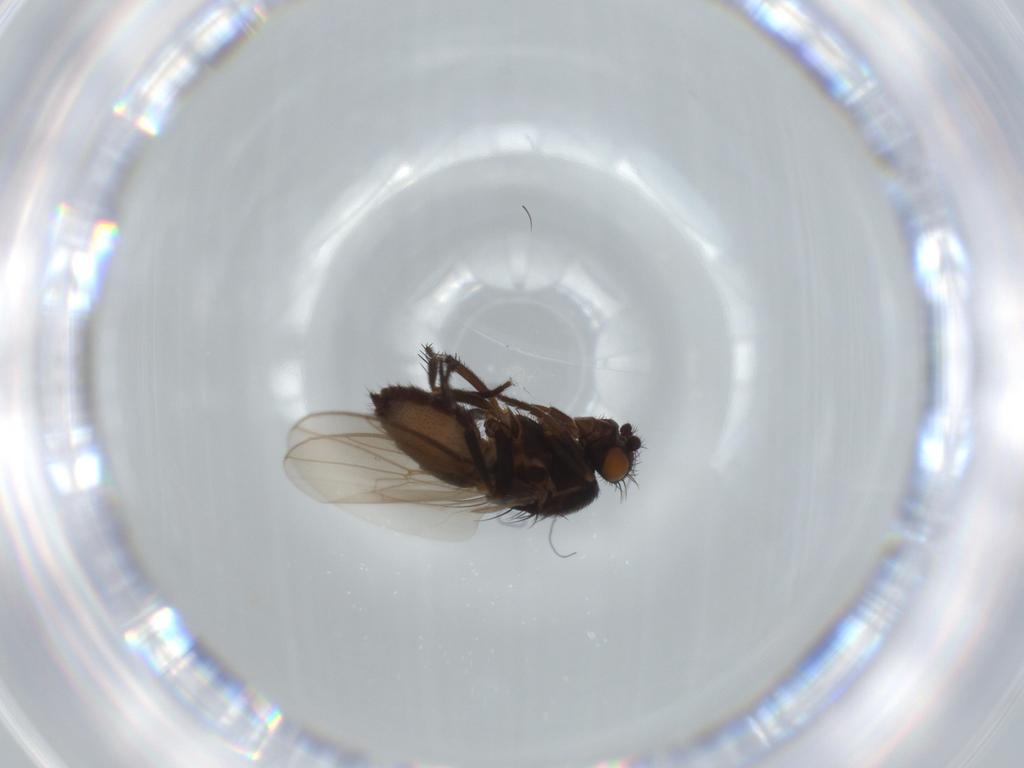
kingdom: Animalia
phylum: Arthropoda
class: Insecta
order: Diptera
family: Sphaeroceridae
